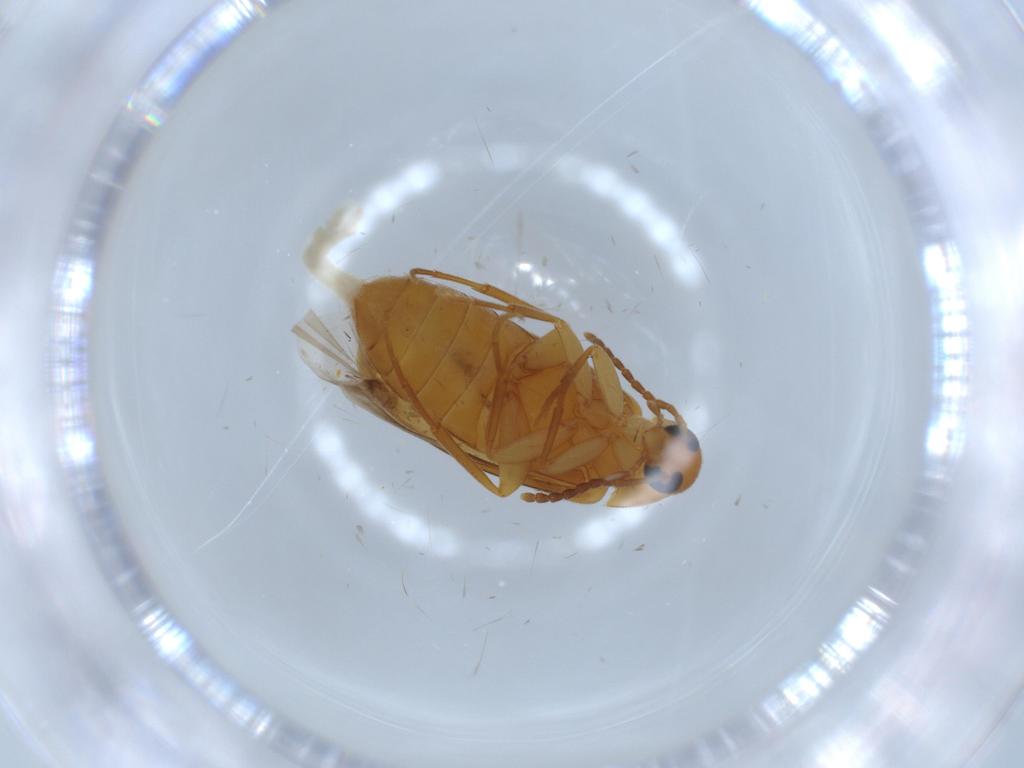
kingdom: Animalia
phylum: Arthropoda
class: Insecta
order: Coleoptera
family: Scraptiidae
